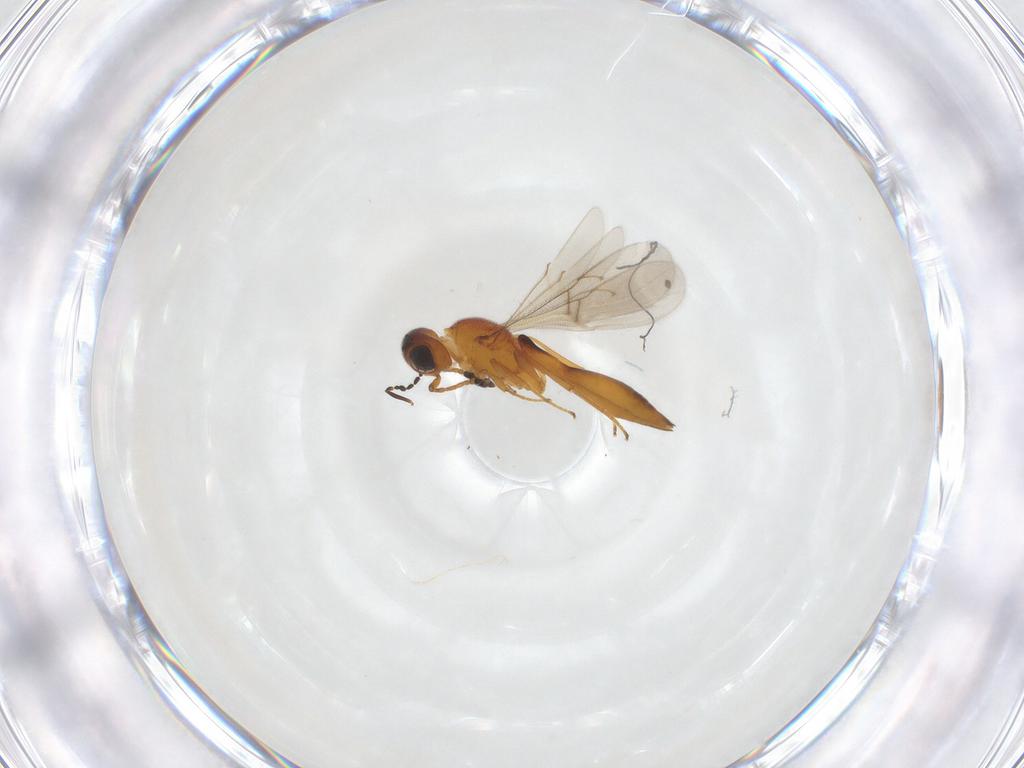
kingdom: Animalia
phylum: Arthropoda
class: Insecta
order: Hymenoptera
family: Scelionidae
